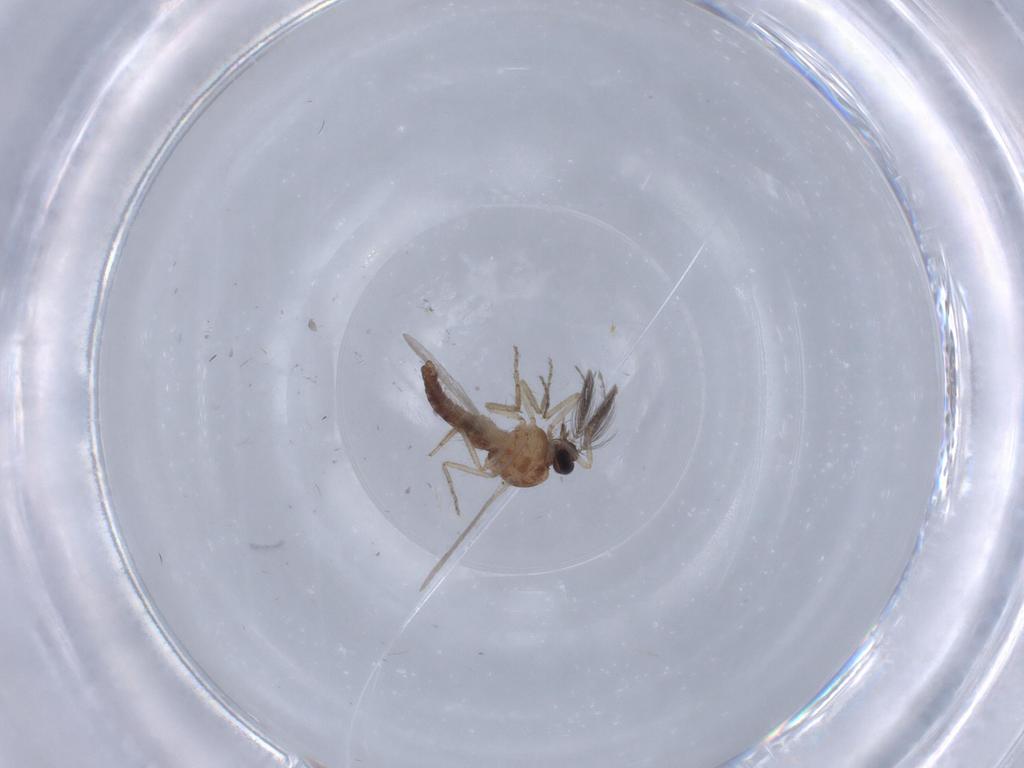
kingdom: Animalia
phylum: Arthropoda
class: Insecta
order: Diptera
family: Ceratopogonidae
